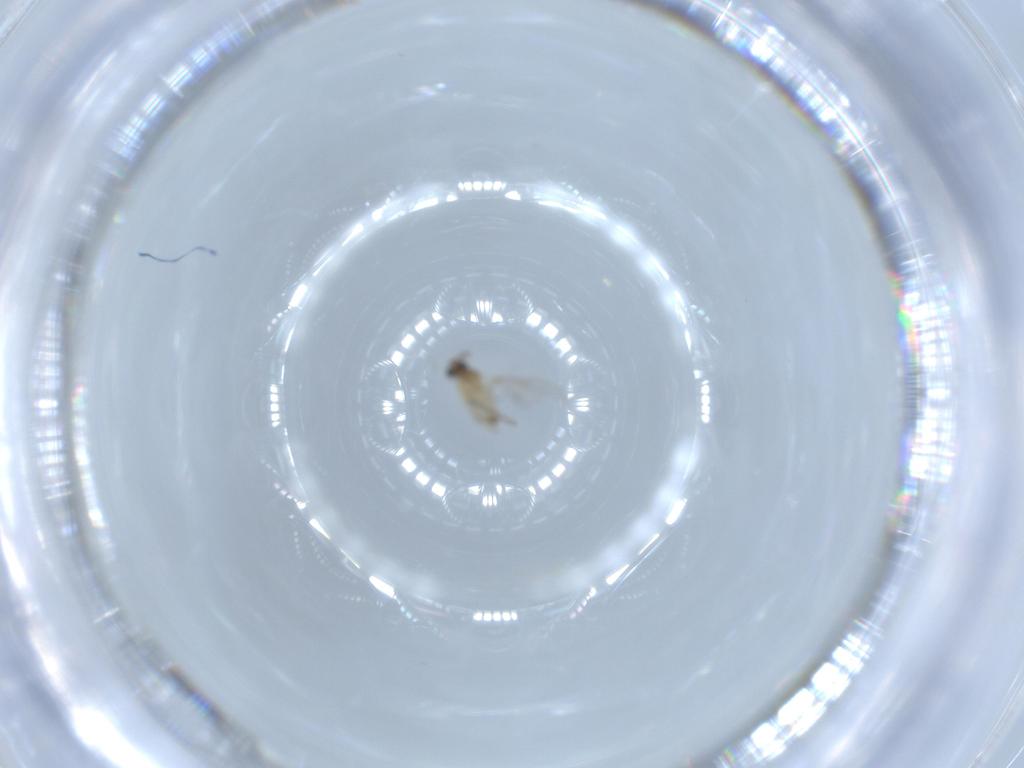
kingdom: Animalia
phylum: Arthropoda
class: Insecta
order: Diptera
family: Cecidomyiidae
